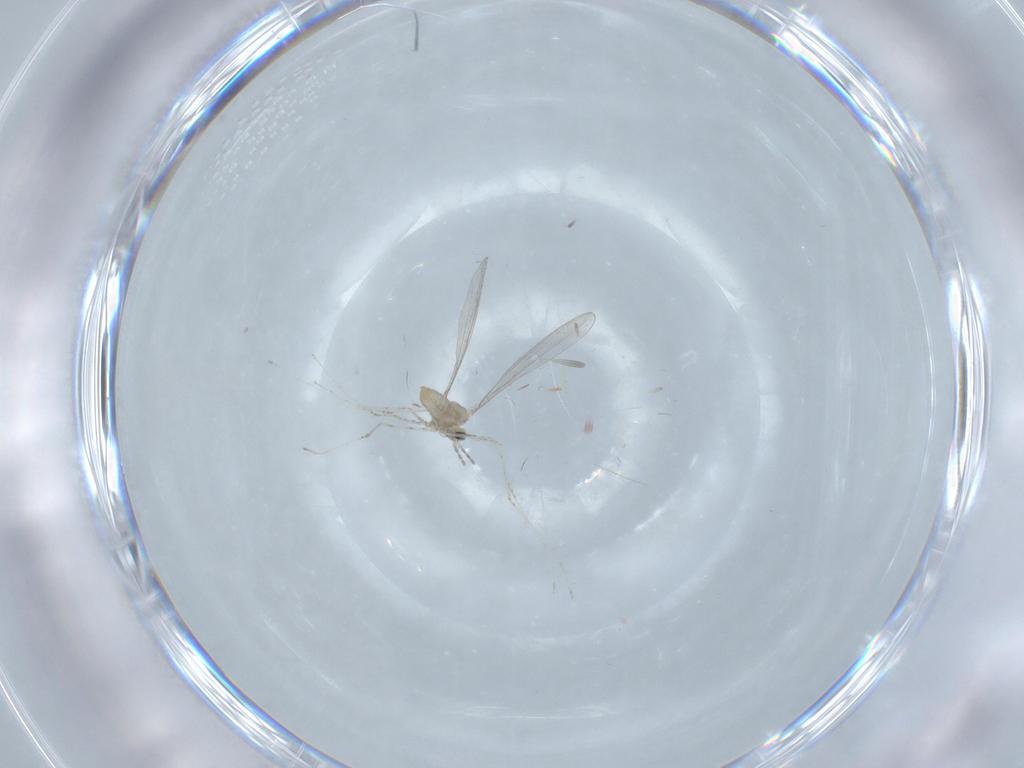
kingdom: Animalia
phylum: Arthropoda
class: Insecta
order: Diptera
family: Cecidomyiidae
